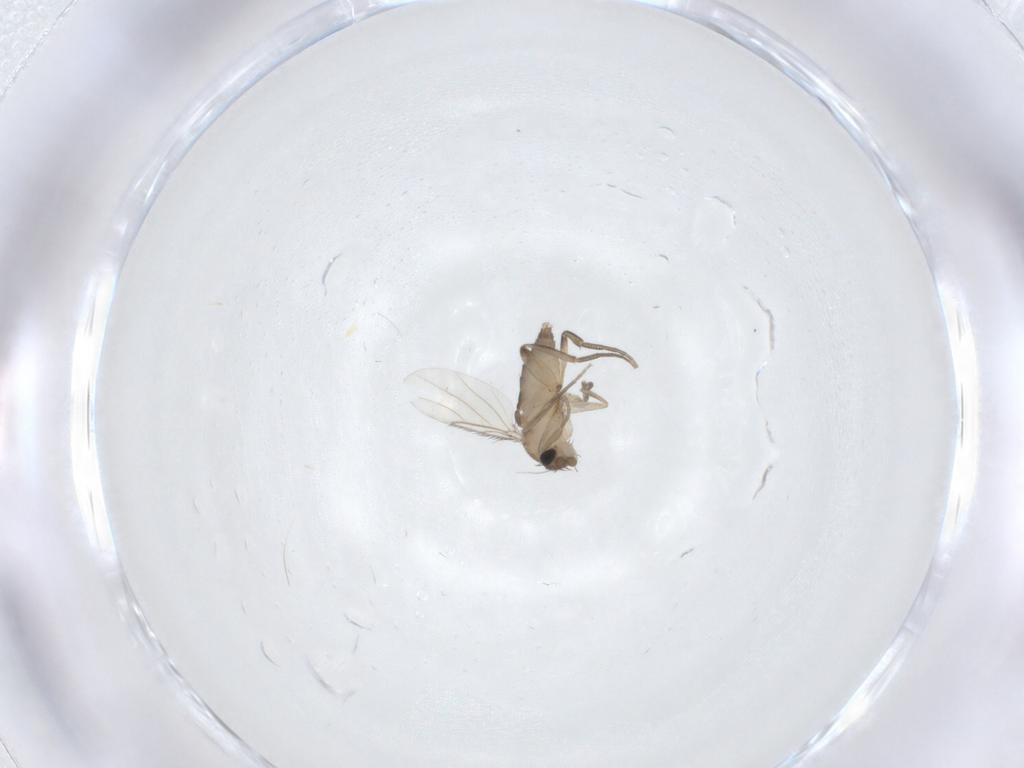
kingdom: Animalia
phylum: Arthropoda
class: Insecta
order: Diptera
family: Phoridae
